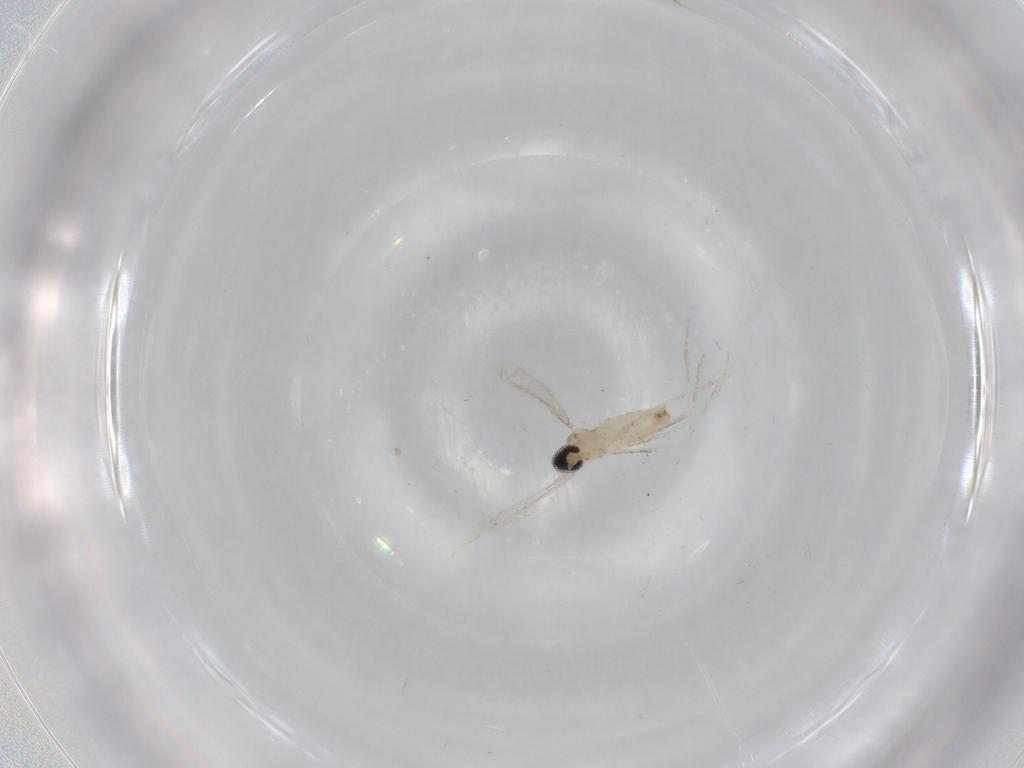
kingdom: Animalia
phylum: Arthropoda
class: Insecta
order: Diptera
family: Cecidomyiidae
